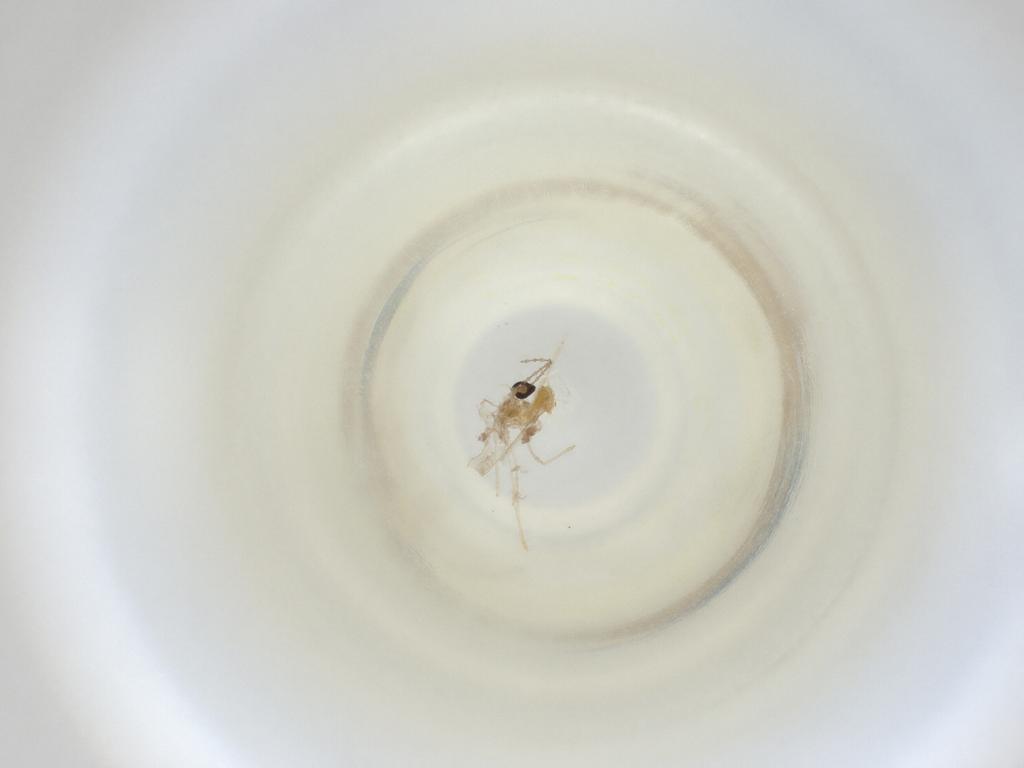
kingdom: Animalia
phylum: Arthropoda
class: Insecta
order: Diptera
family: Cecidomyiidae
